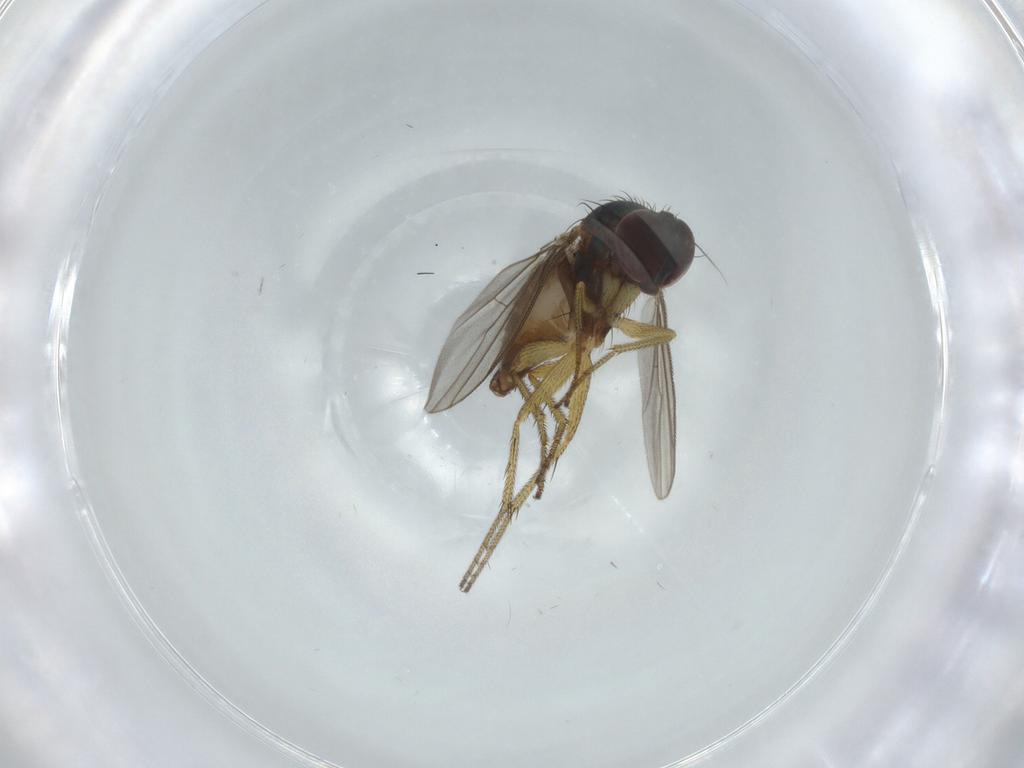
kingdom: Animalia
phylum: Arthropoda
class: Insecta
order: Diptera
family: Dolichopodidae
